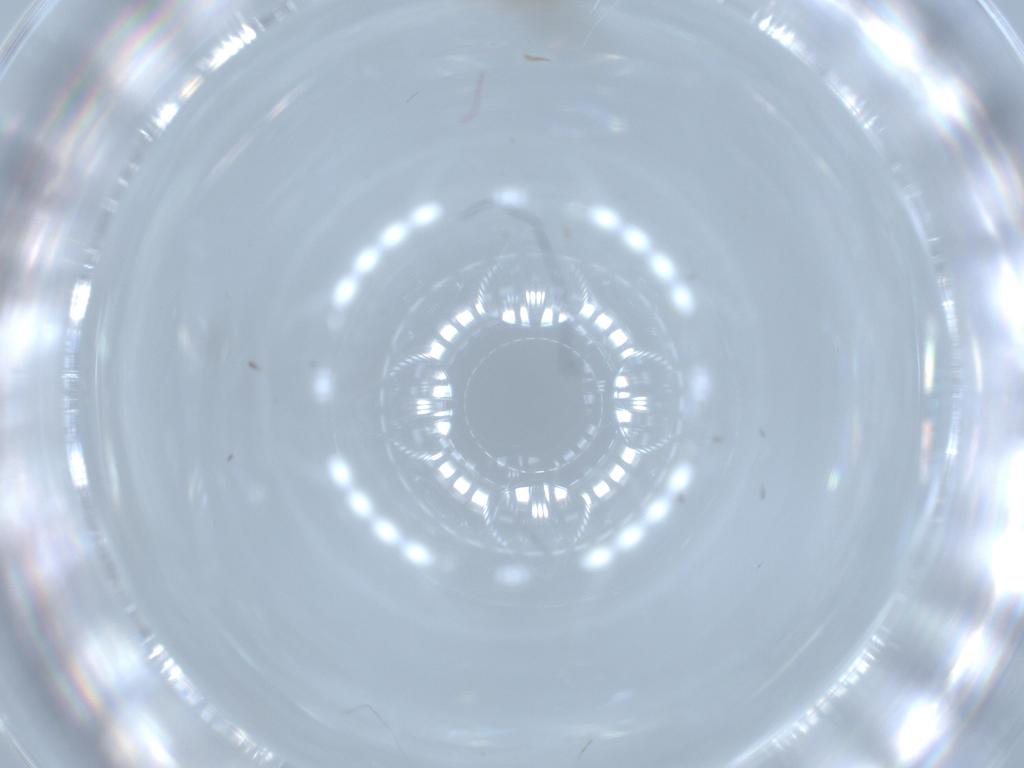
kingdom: Animalia
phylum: Arthropoda
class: Insecta
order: Diptera
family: Chironomidae
